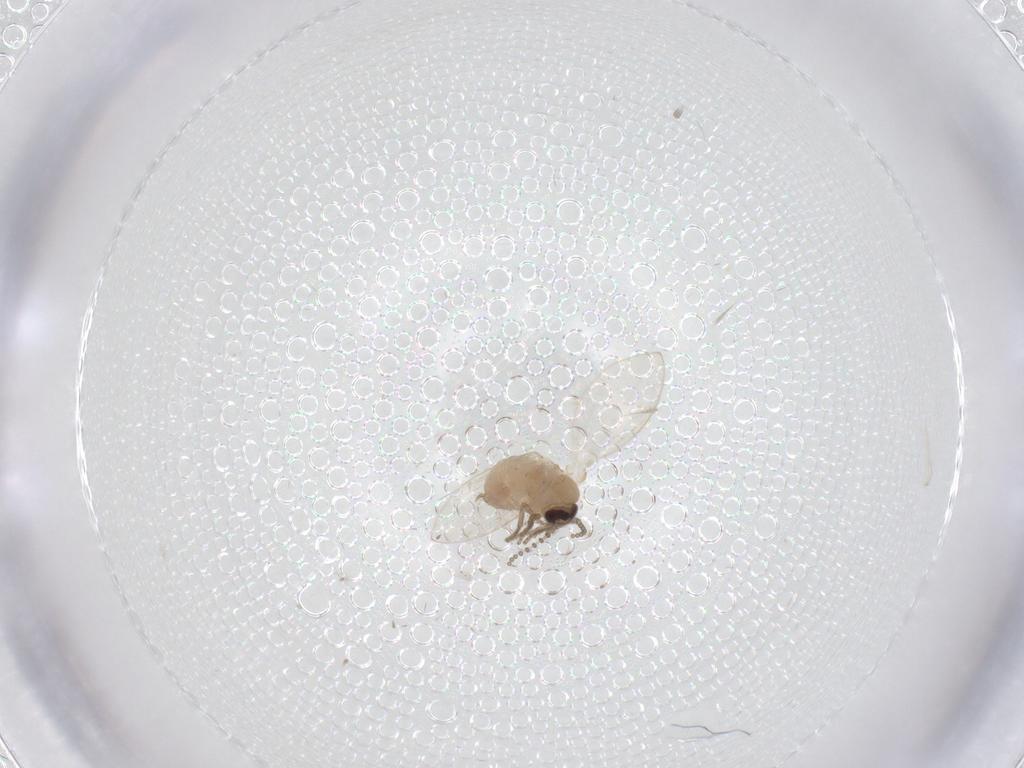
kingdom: Animalia
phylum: Arthropoda
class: Insecta
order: Diptera
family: Psychodidae
